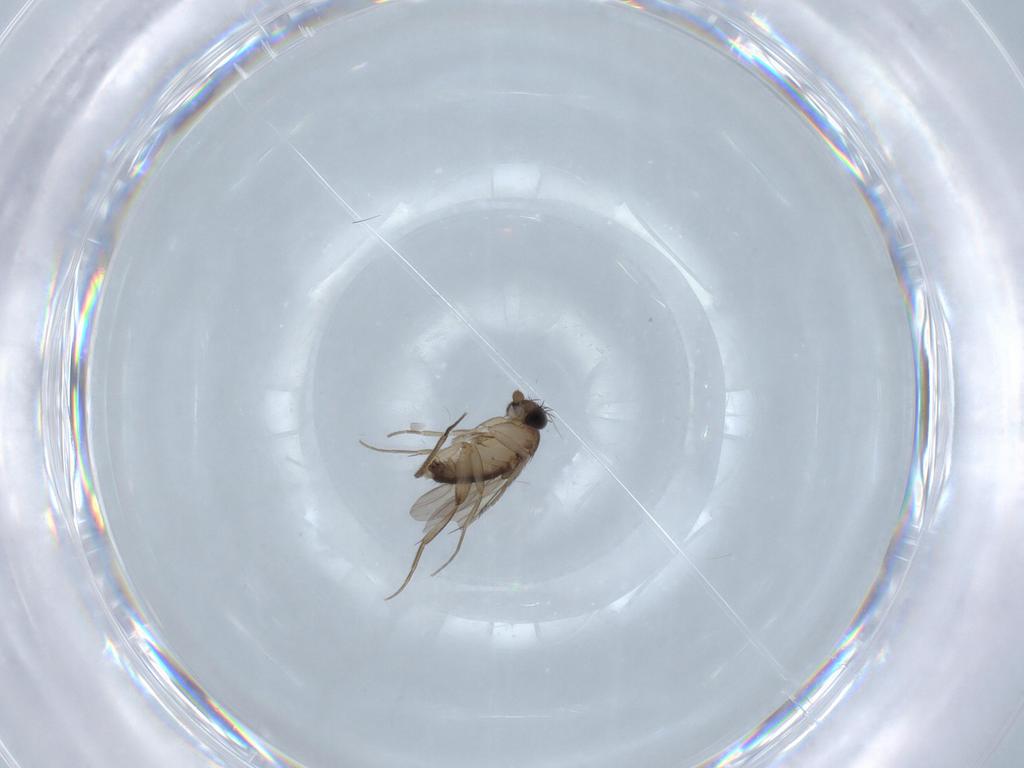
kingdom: Animalia
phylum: Arthropoda
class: Insecta
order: Diptera
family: Phoridae
